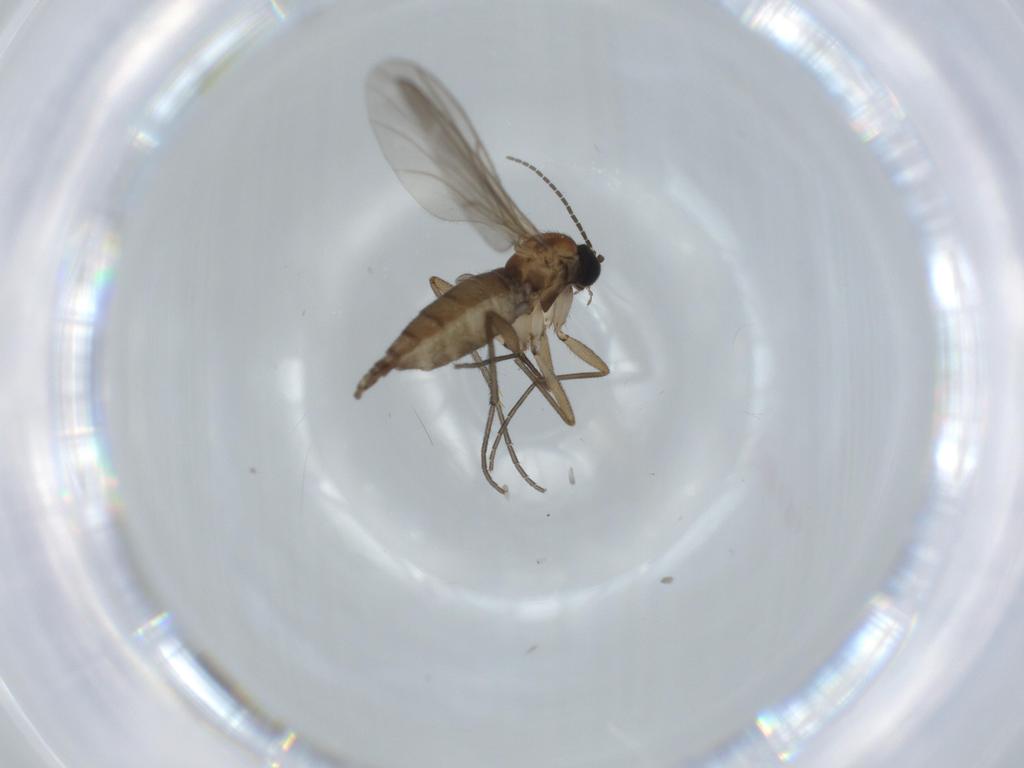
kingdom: Animalia
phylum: Arthropoda
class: Insecta
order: Diptera
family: Sciaridae
